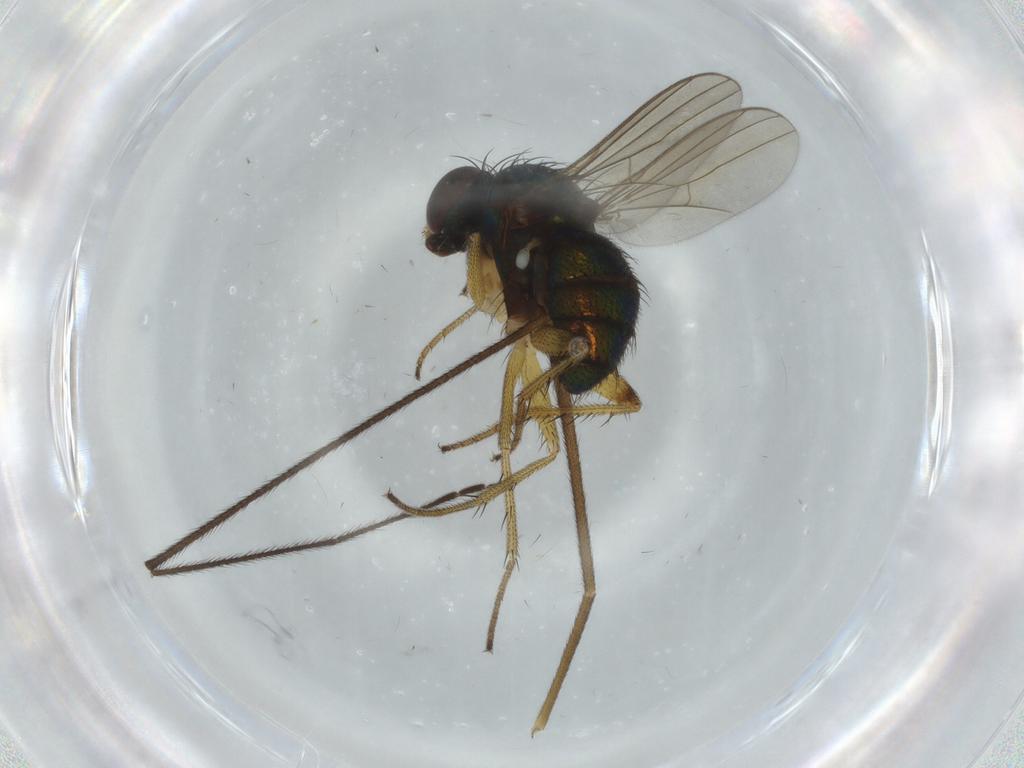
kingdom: Animalia
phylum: Arthropoda
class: Insecta
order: Diptera
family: Dolichopodidae
